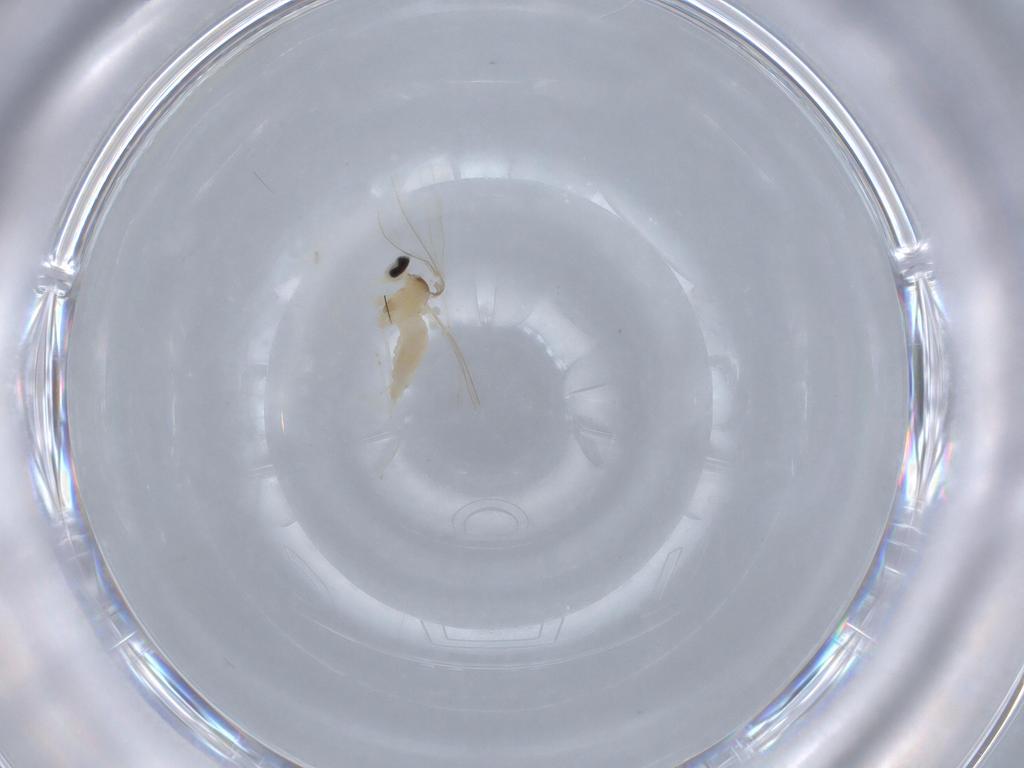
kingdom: Animalia
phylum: Arthropoda
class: Insecta
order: Diptera
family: Cecidomyiidae
